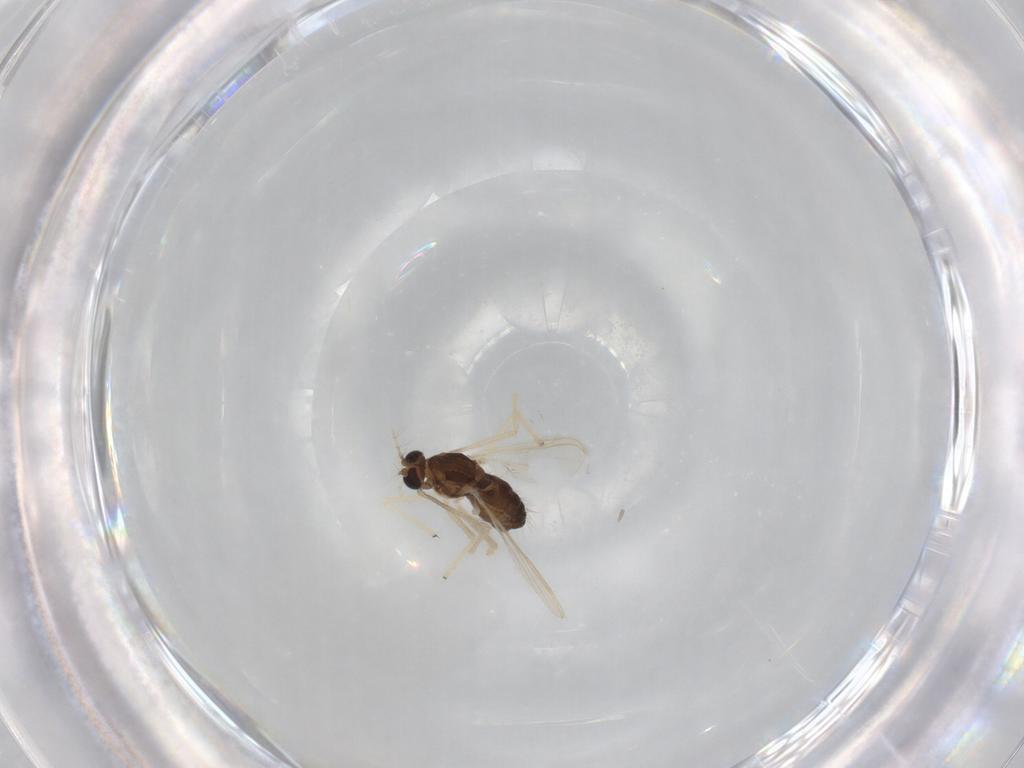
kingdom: Animalia
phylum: Arthropoda
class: Insecta
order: Diptera
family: Chironomidae
